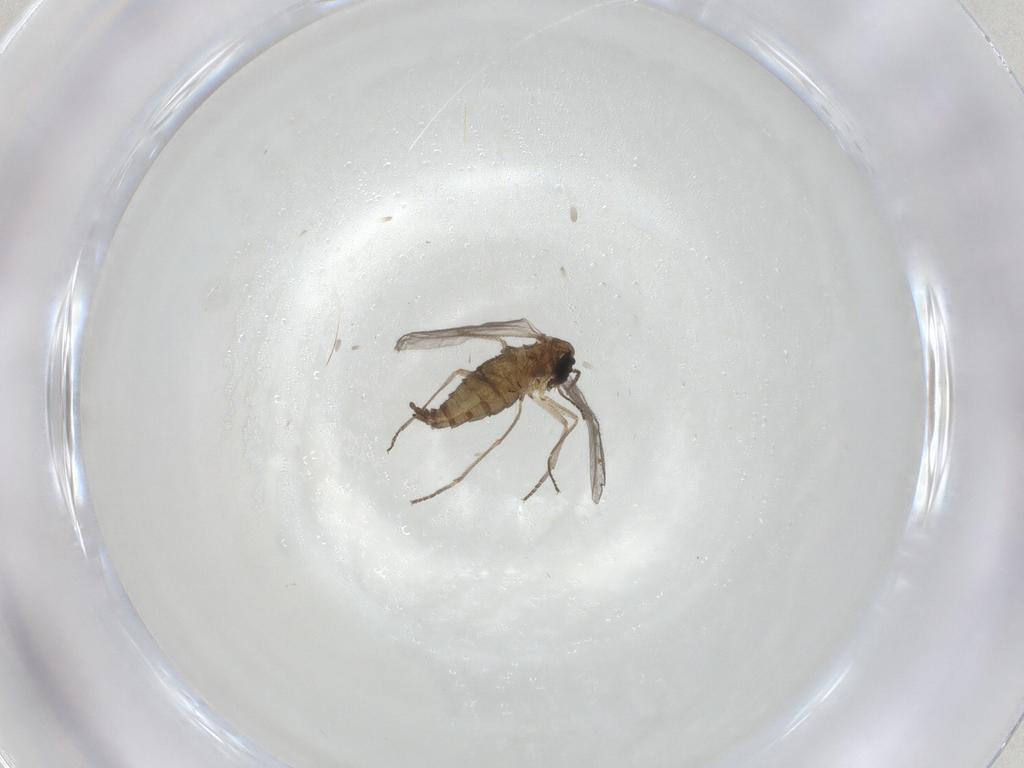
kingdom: Animalia
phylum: Arthropoda
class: Insecta
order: Diptera
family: Sciaridae
